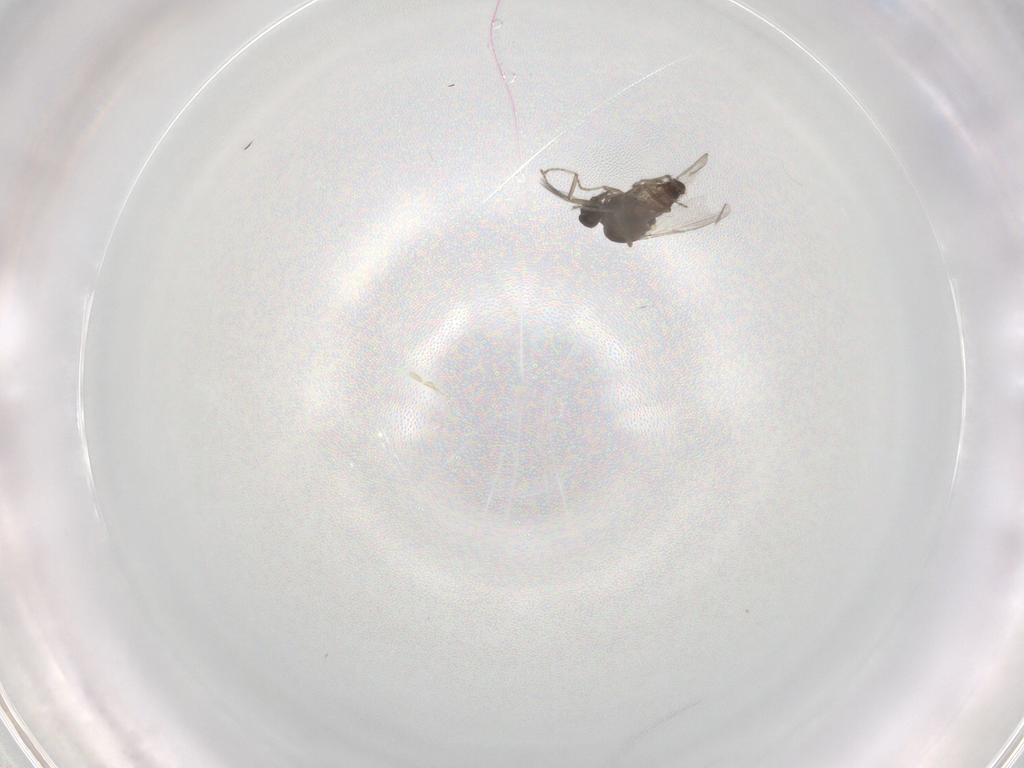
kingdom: Animalia
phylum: Arthropoda
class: Insecta
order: Diptera
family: Ceratopogonidae
